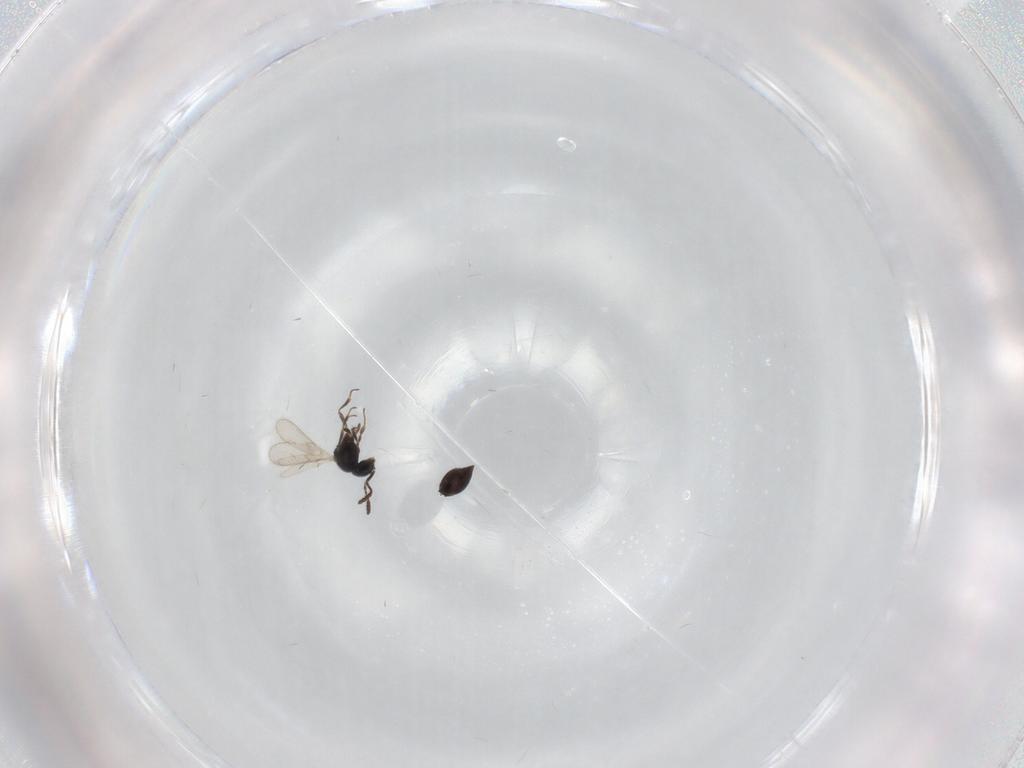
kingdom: Animalia
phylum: Arthropoda
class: Insecta
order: Hymenoptera
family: Scelionidae
